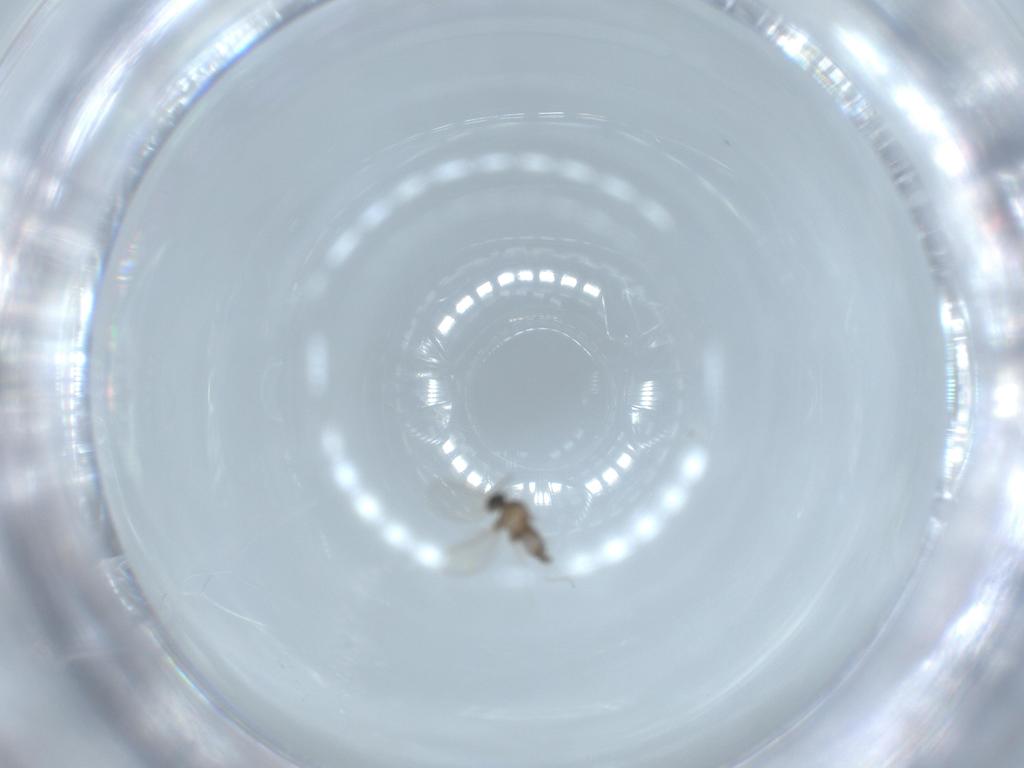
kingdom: Animalia
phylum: Arthropoda
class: Insecta
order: Diptera
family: Cecidomyiidae
